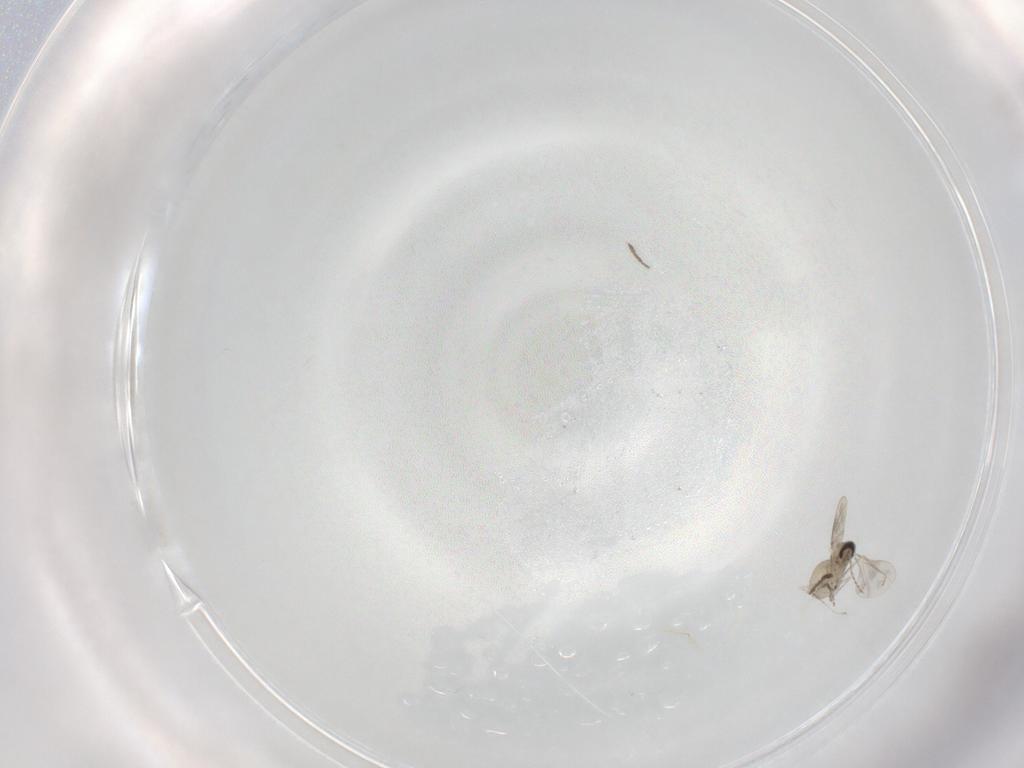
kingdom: Animalia
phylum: Arthropoda
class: Insecta
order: Diptera
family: Chironomidae
